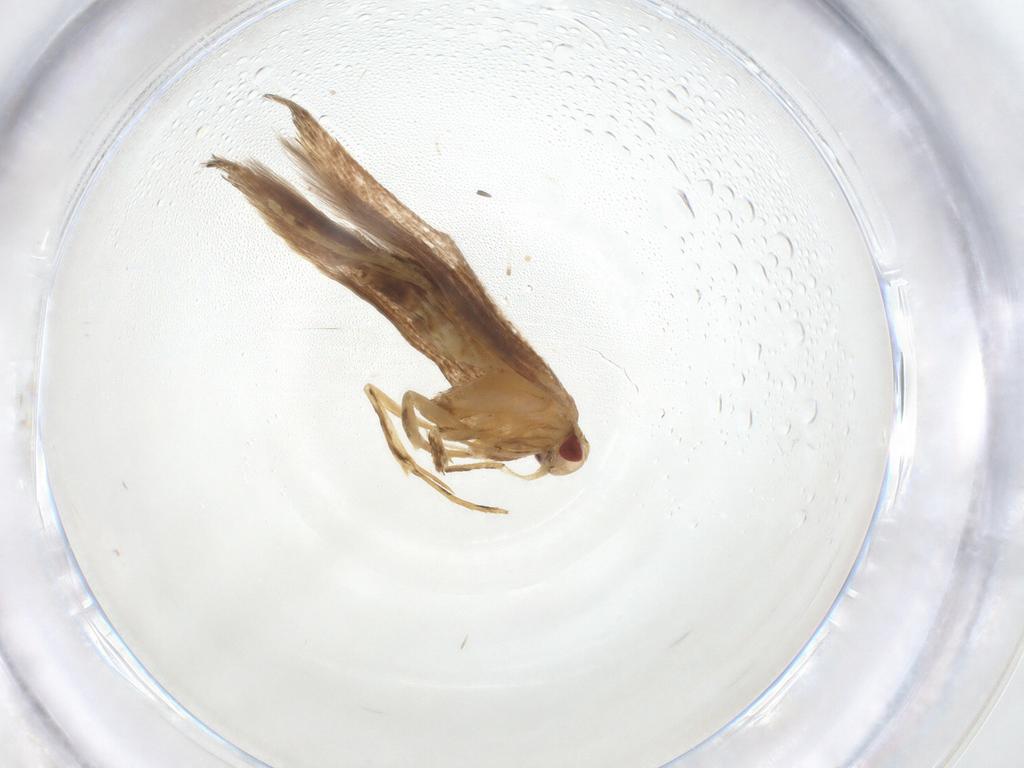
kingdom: Animalia
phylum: Arthropoda
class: Insecta
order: Lepidoptera
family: Cosmopterigidae
